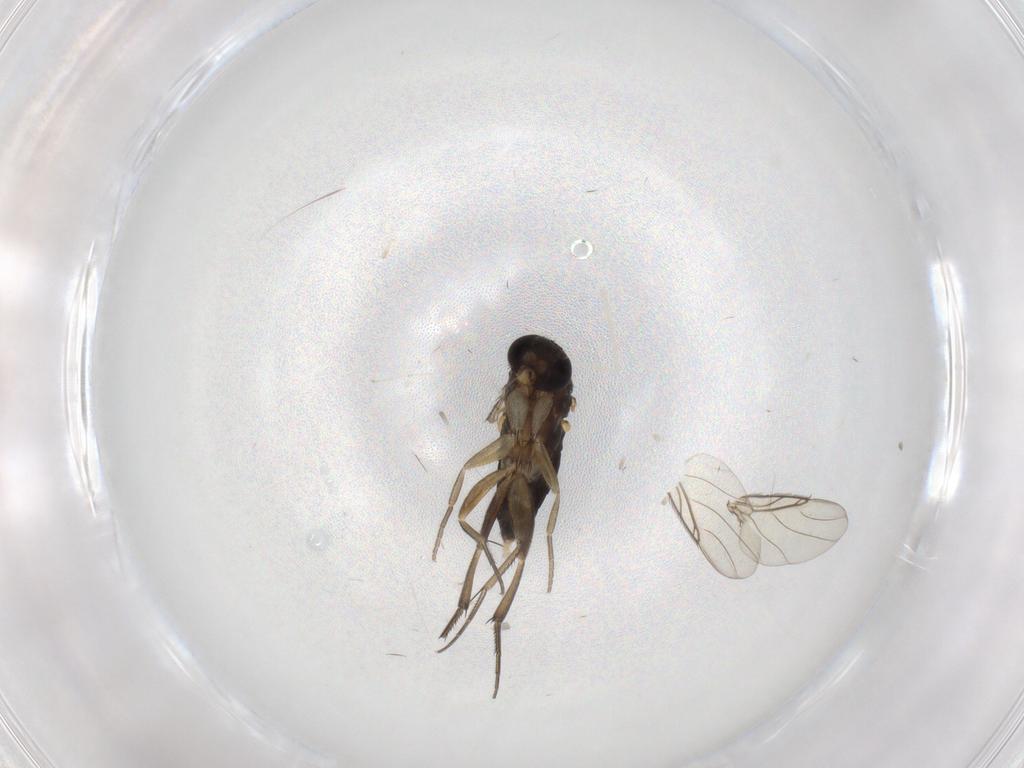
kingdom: Animalia
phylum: Arthropoda
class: Insecta
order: Diptera
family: Phoridae
